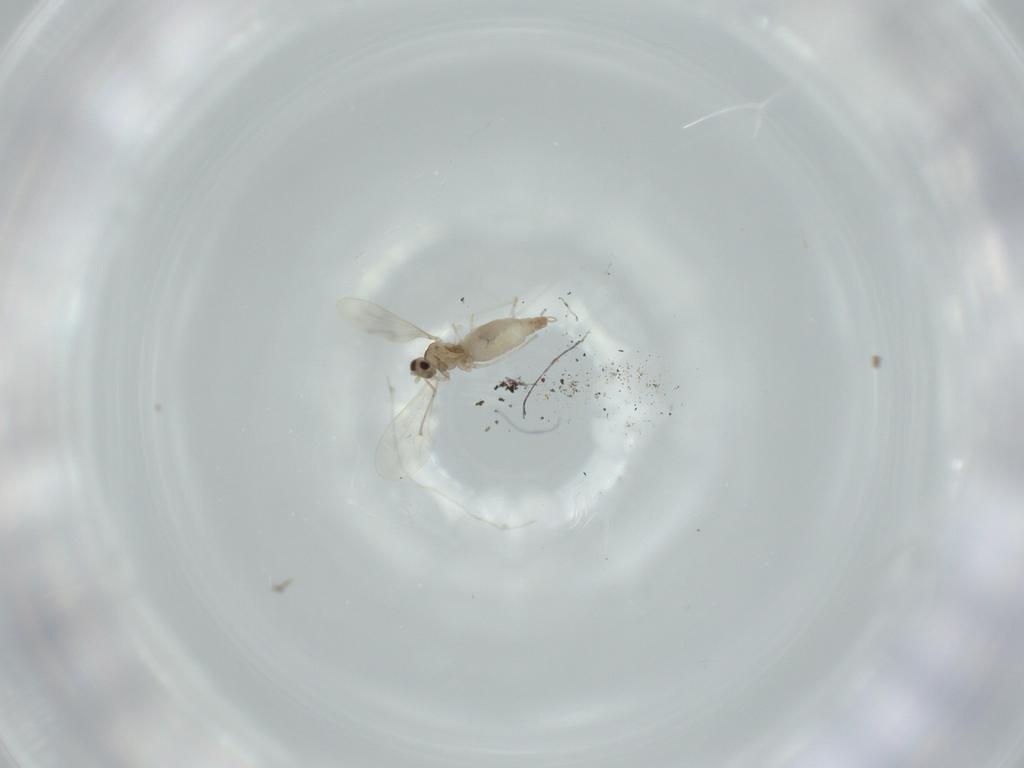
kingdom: Animalia
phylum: Arthropoda
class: Insecta
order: Diptera
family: Cecidomyiidae
